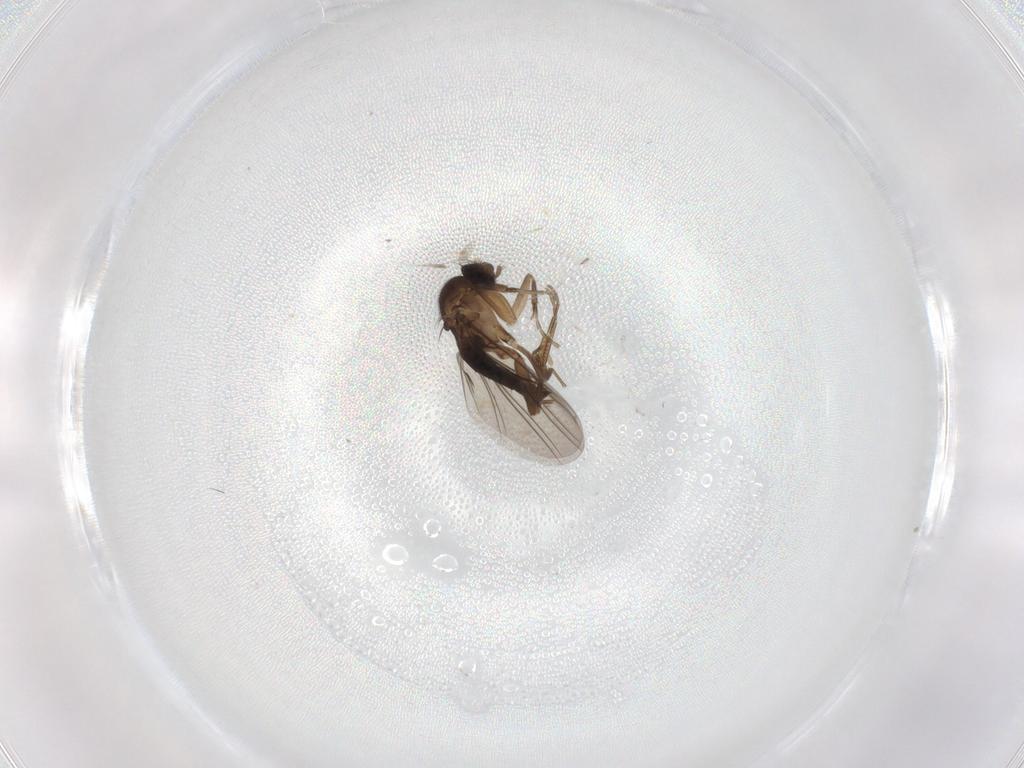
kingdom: Animalia
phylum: Arthropoda
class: Insecta
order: Diptera
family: Phoridae
